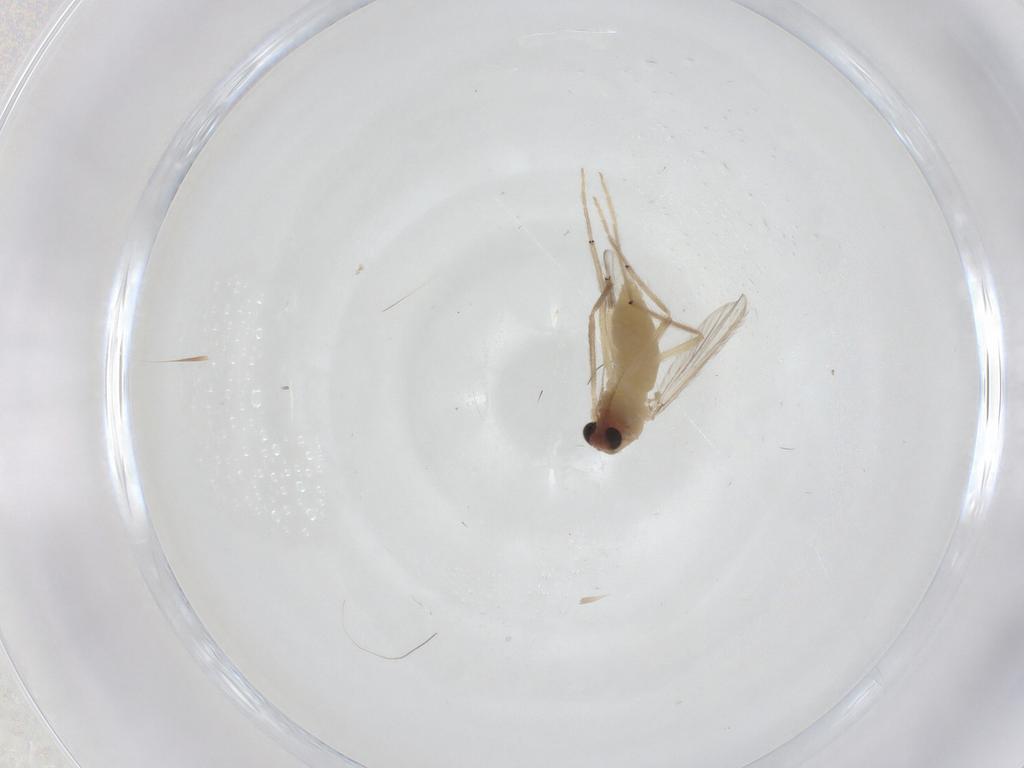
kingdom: Animalia
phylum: Arthropoda
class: Insecta
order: Diptera
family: Chironomidae
